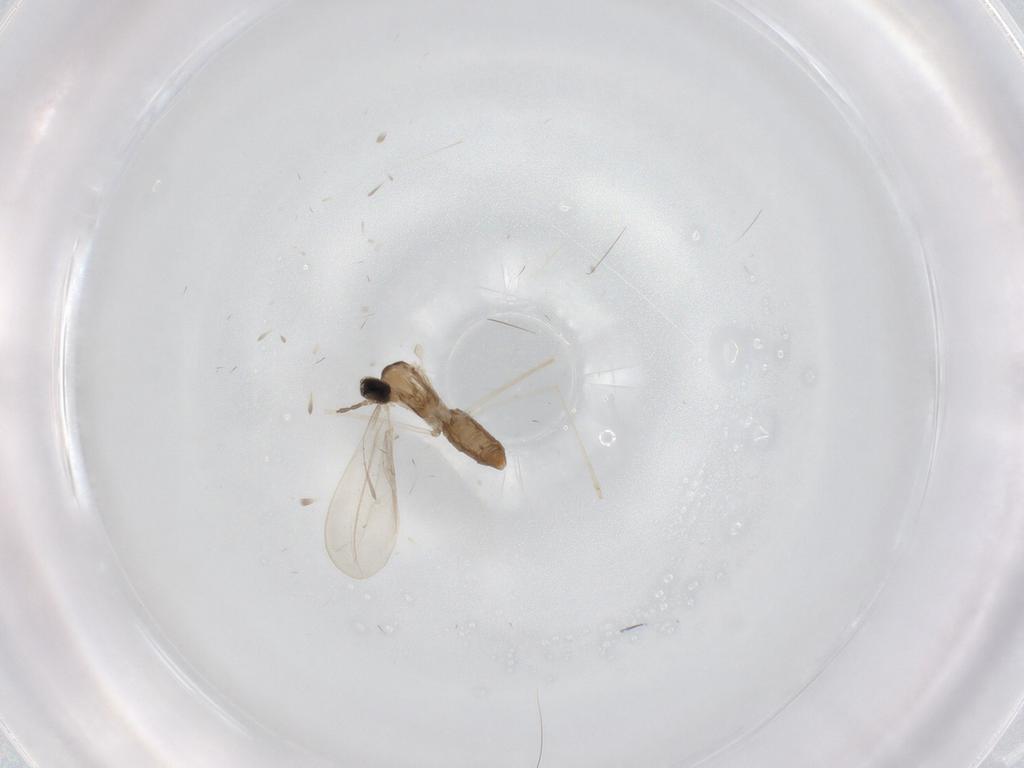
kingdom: Animalia
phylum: Arthropoda
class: Insecta
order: Diptera
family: Cecidomyiidae
